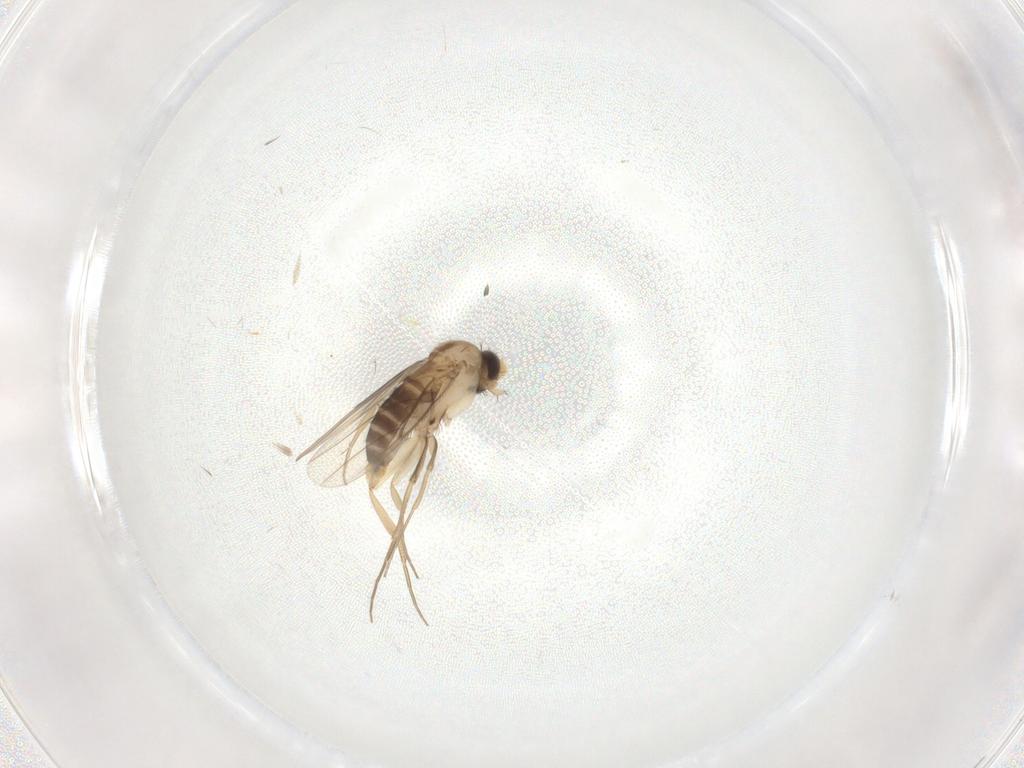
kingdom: Animalia
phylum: Arthropoda
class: Insecta
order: Diptera
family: Phoridae
